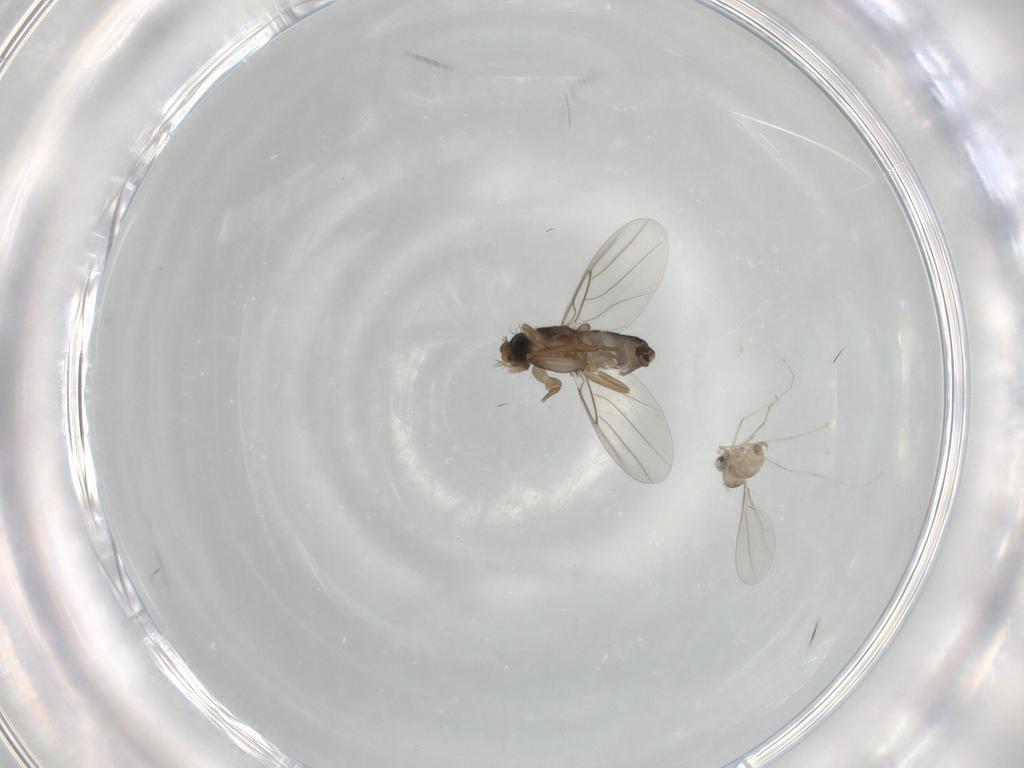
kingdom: Animalia
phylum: Arthropoda
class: Insecta
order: Diptera
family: Phoridae
